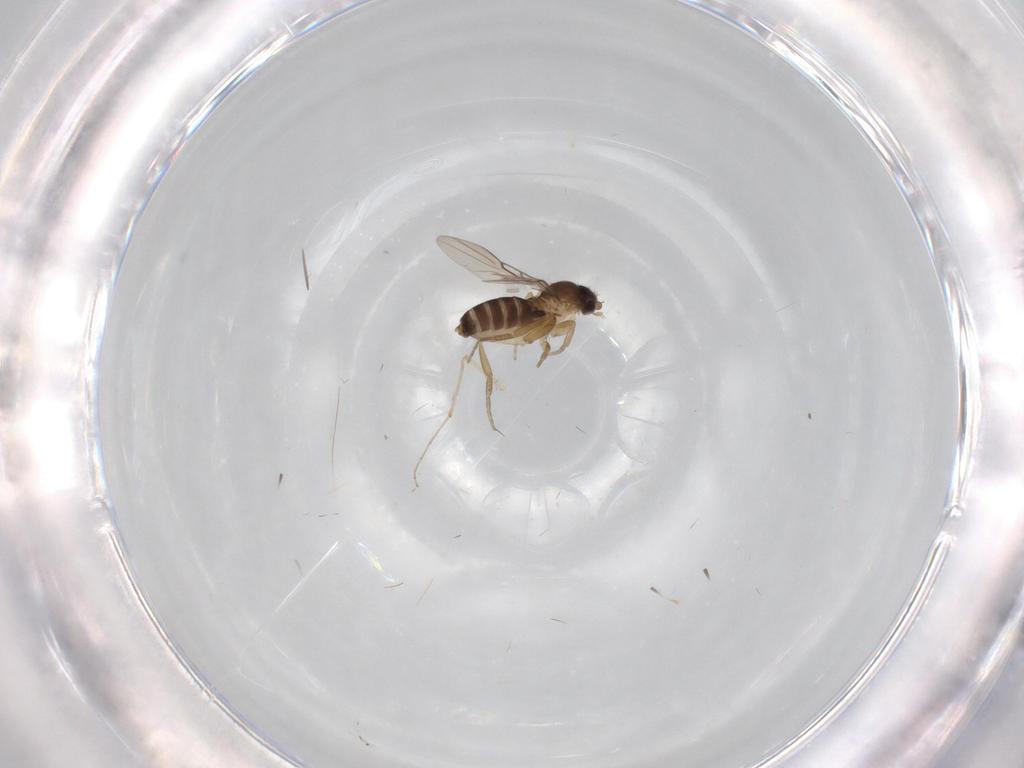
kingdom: Animalia
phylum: Arthropoda
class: Insecta
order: Diptera
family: Phoridae
